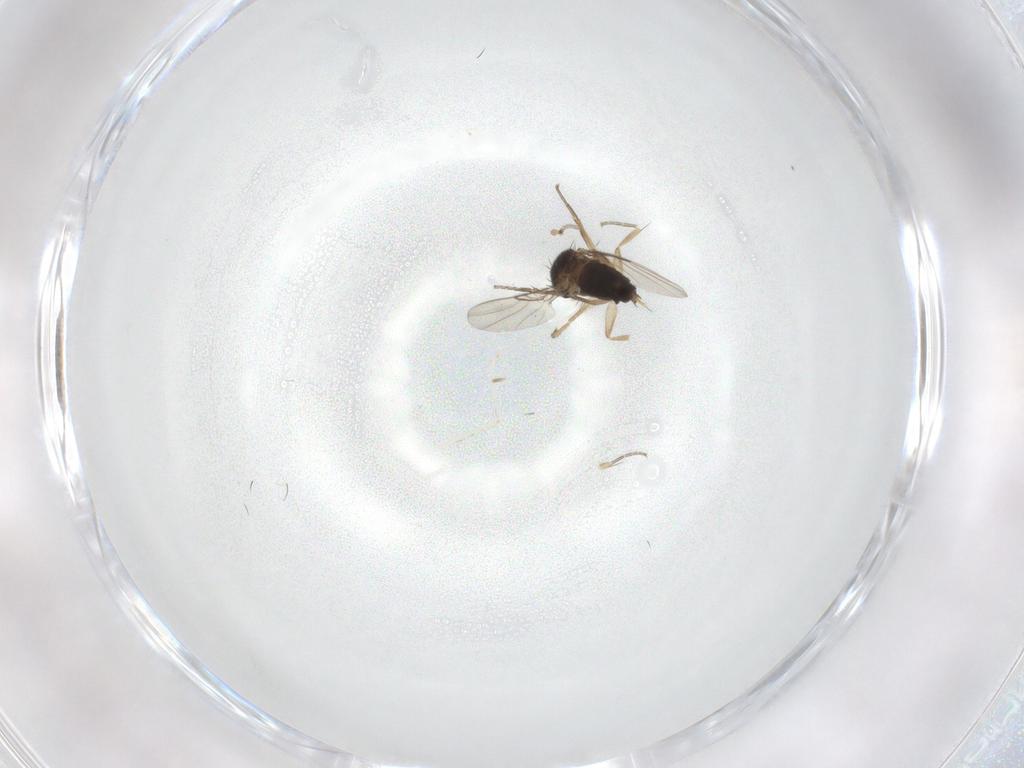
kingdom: Animalia
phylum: Arthropoda
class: Insecta
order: Diptera
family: Phoridae
